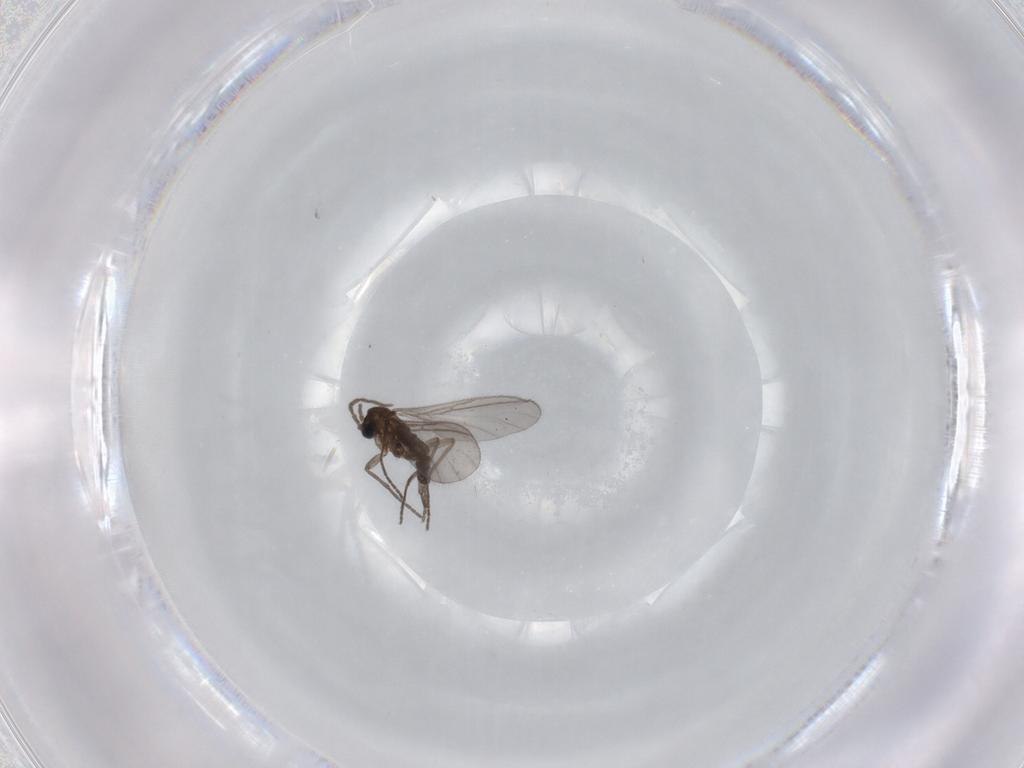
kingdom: Animalia
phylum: Arthropoda
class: Insecta
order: Diptera
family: Sciaridae
